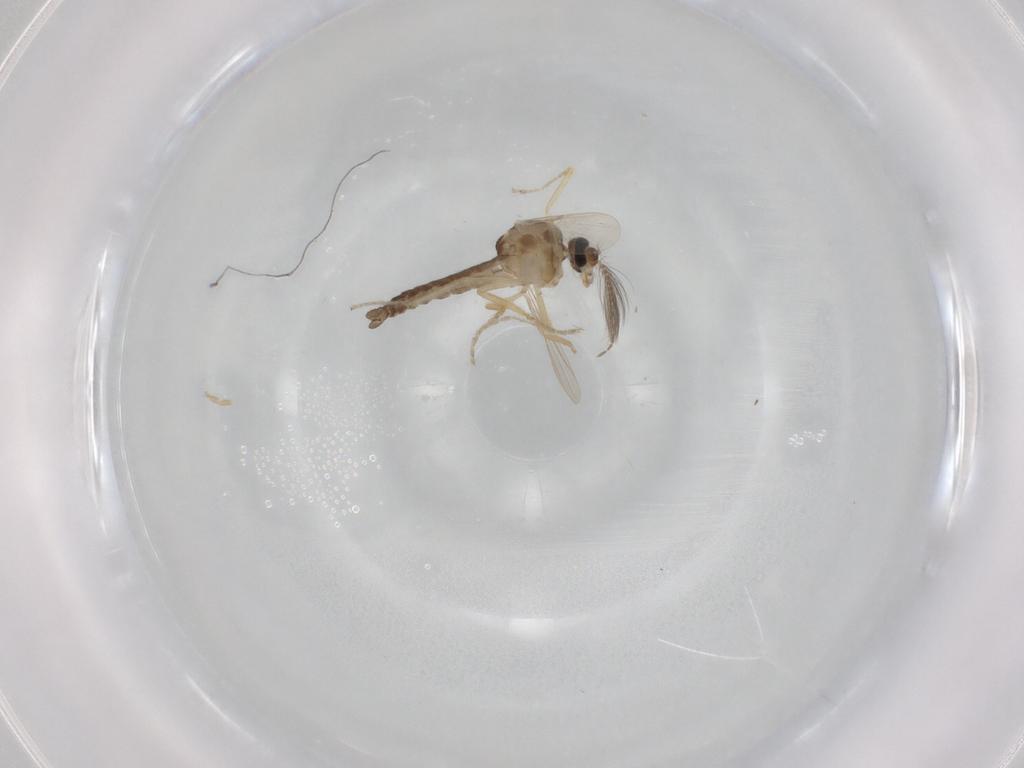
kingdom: Animalia
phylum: Arthropoda
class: Insecta
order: Diptera
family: Ceratopogonidae
